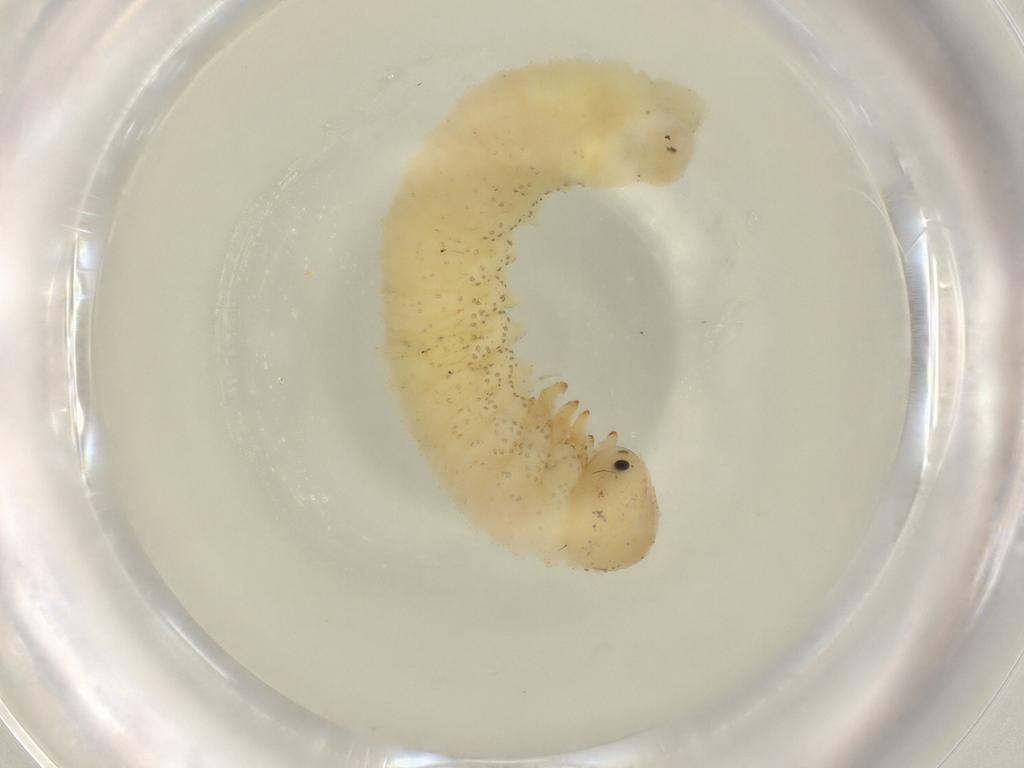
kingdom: Animalia
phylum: Arthropoda
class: Insecta
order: Hymenoptera
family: Tenthredinidae
